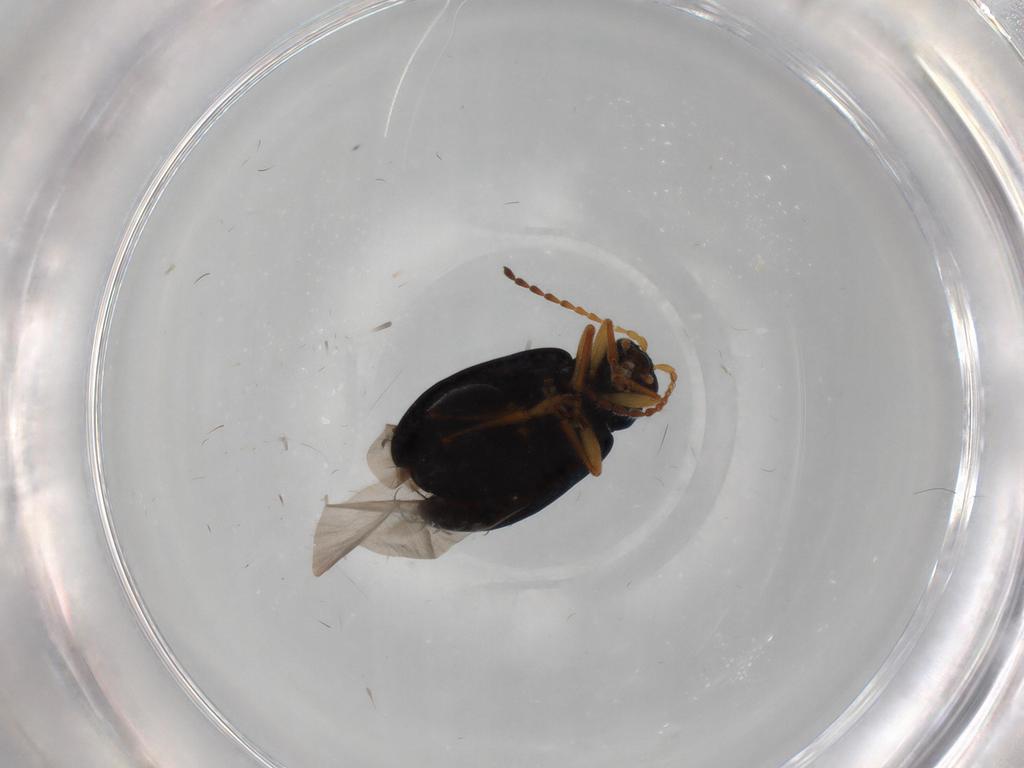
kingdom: Animalia
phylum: Arthropoda
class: Insecta
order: Coleoptera
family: Chrysomelidae
